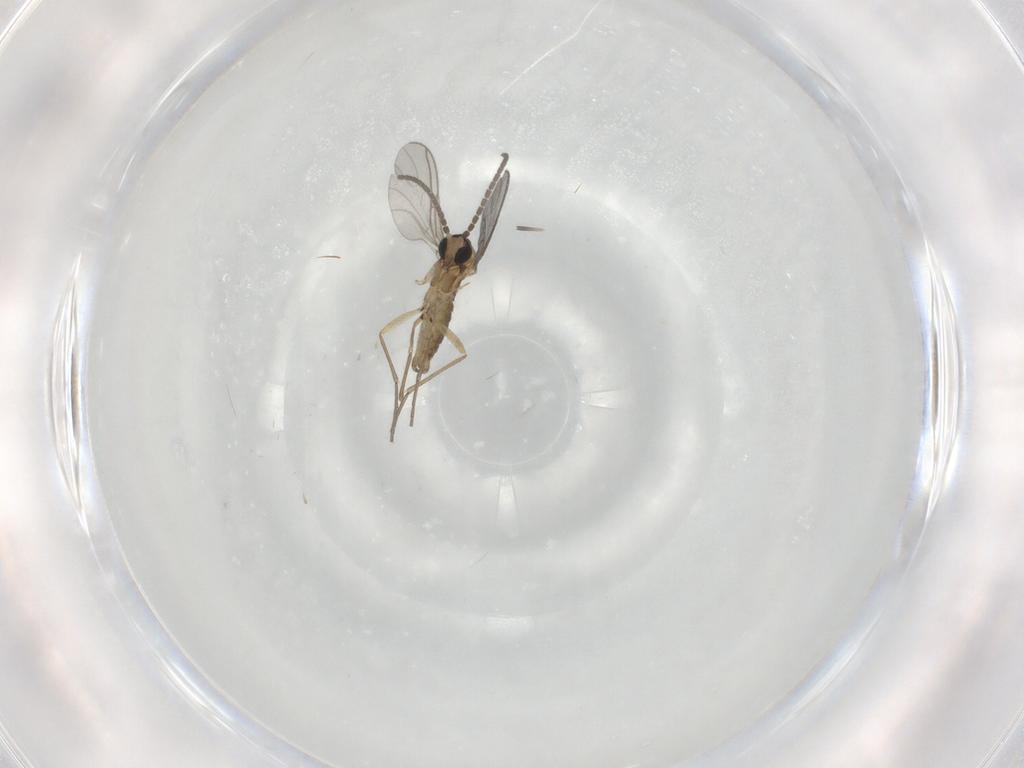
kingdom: Animalia
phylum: Arthropoda
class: Insecta
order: Diptera
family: Sciaridae
